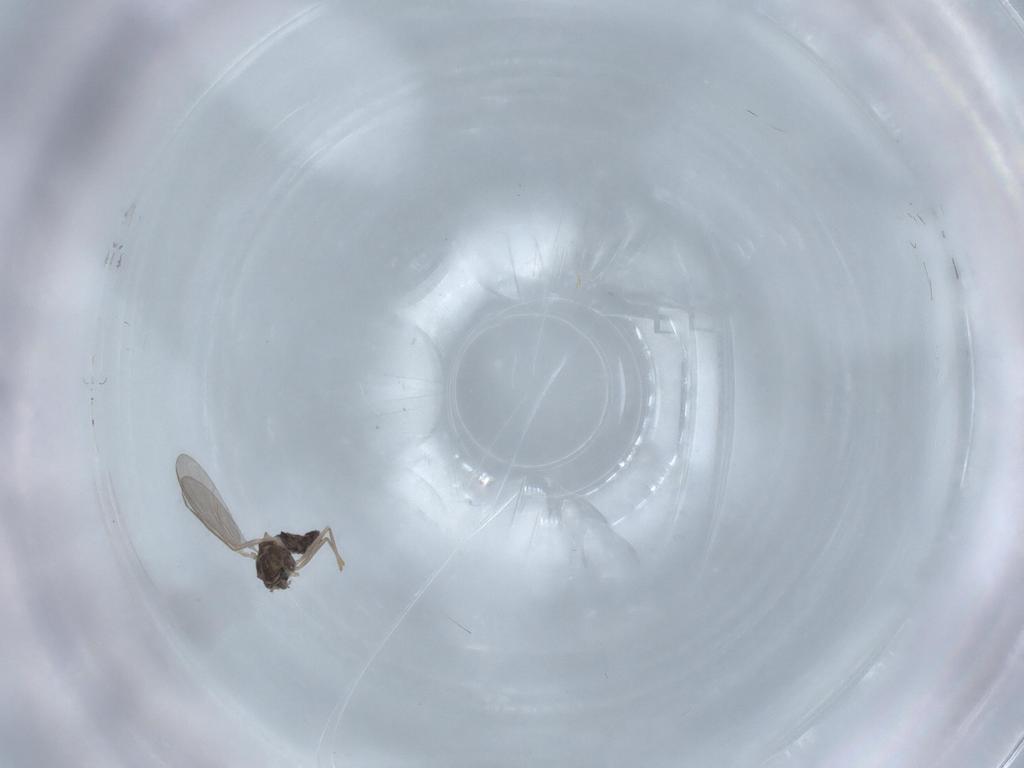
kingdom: Animalia
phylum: Arthropoda
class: Insecta
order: Diptera
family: Chironomidae
